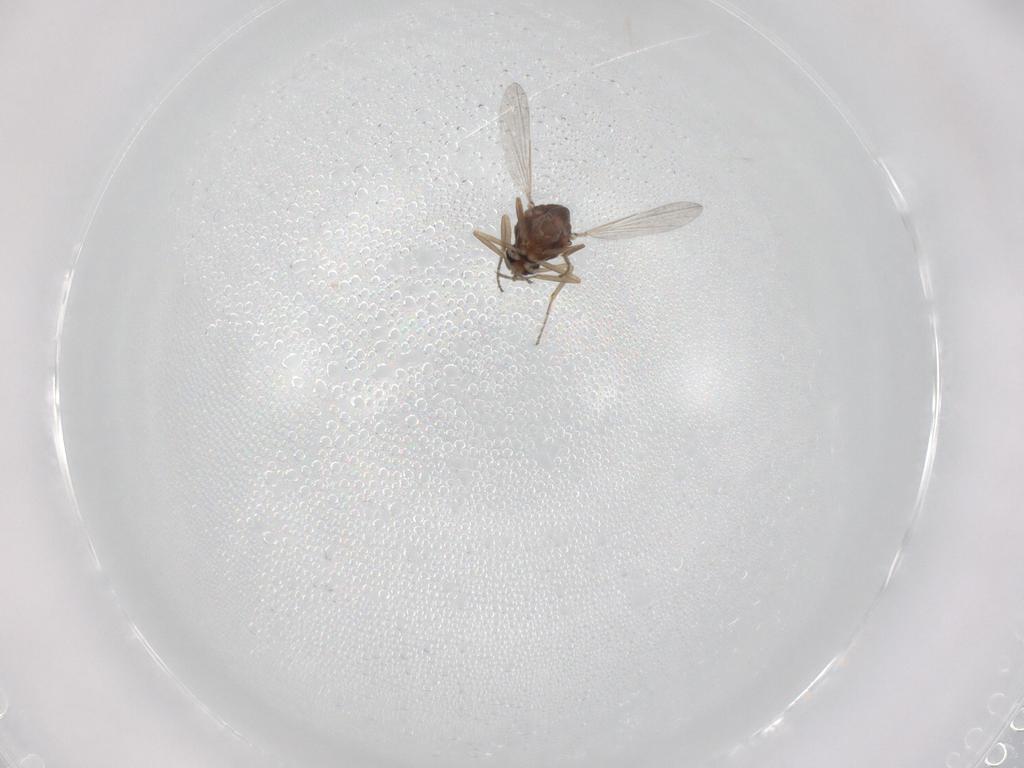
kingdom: Animalia
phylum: Arthropoda
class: Insecta
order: Diptera
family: Ceratopogonidae
